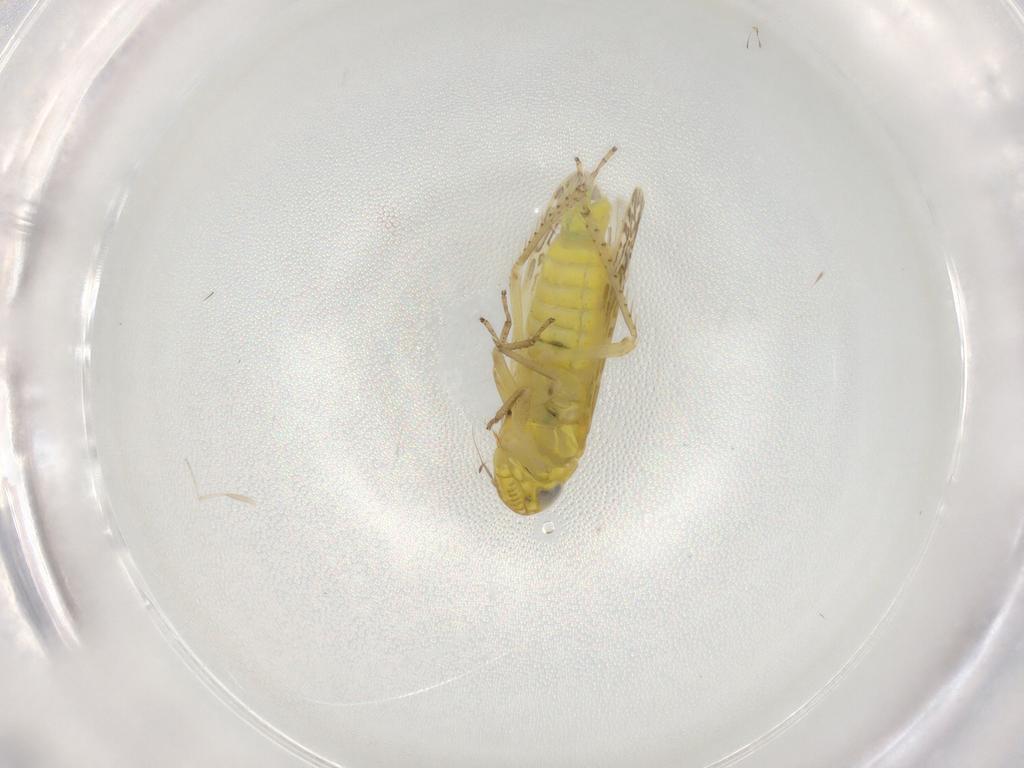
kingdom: Animalia
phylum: Arthropoda
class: Insecta
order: Hemiptera
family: Cicadellidae
